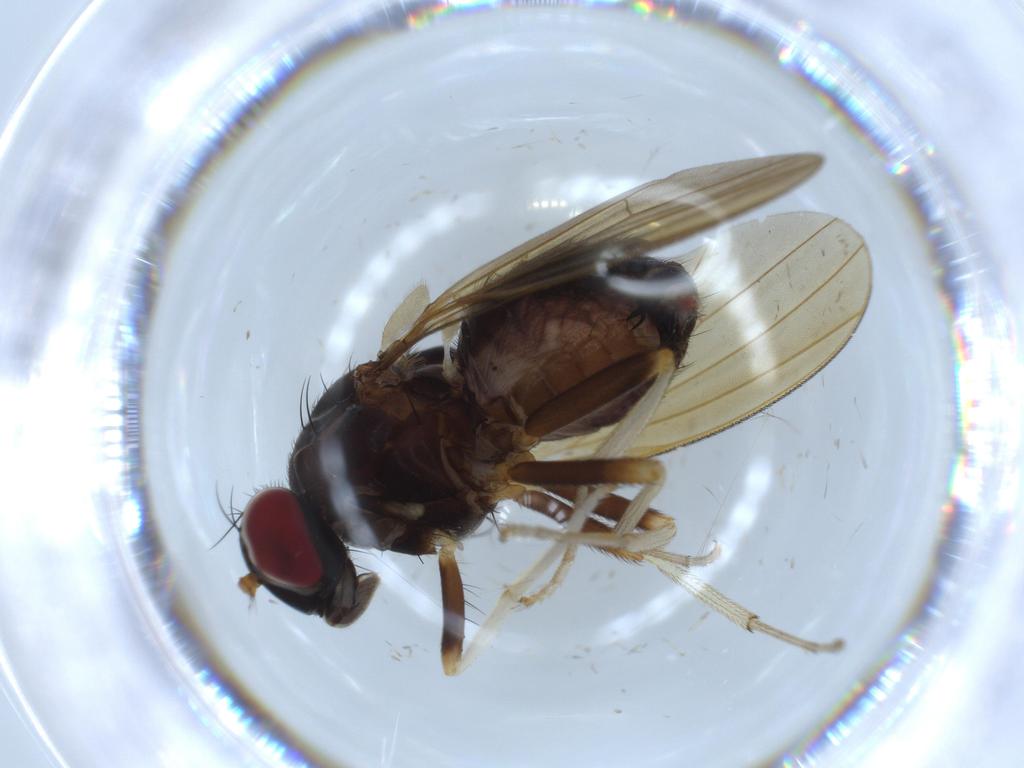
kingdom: Animalia
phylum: Arthropoda
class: Insecta
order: Diptera
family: Lauxaniidae
